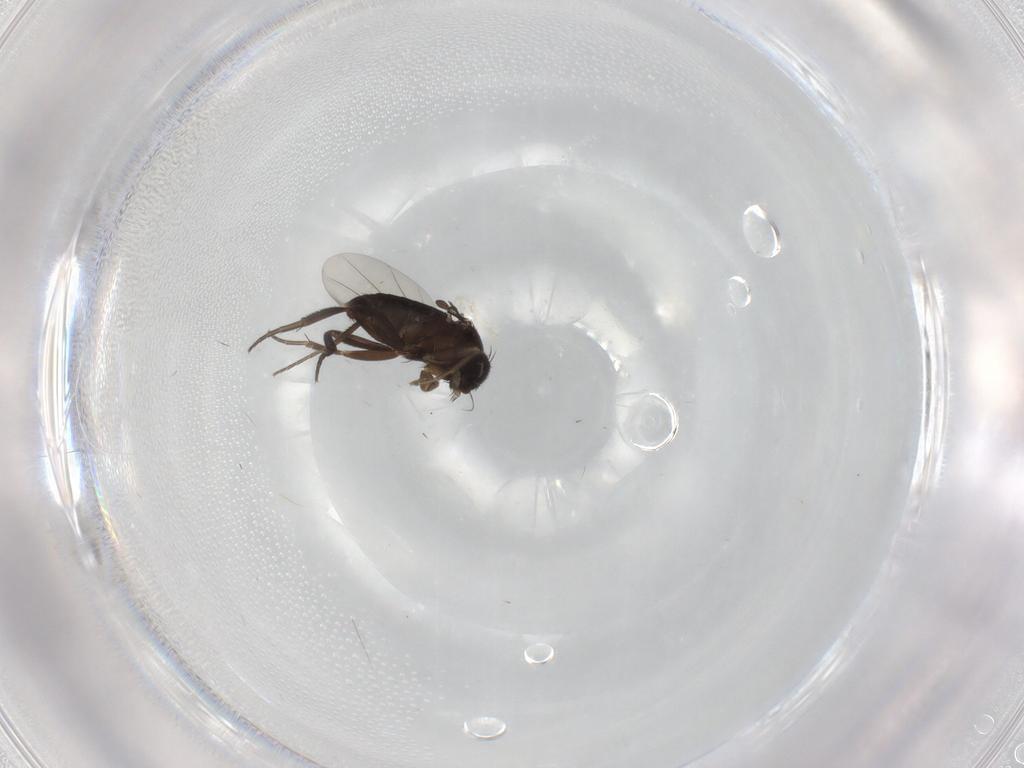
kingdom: Animalia
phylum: Arthropoda
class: Insecta
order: Diptera
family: Phoridae
